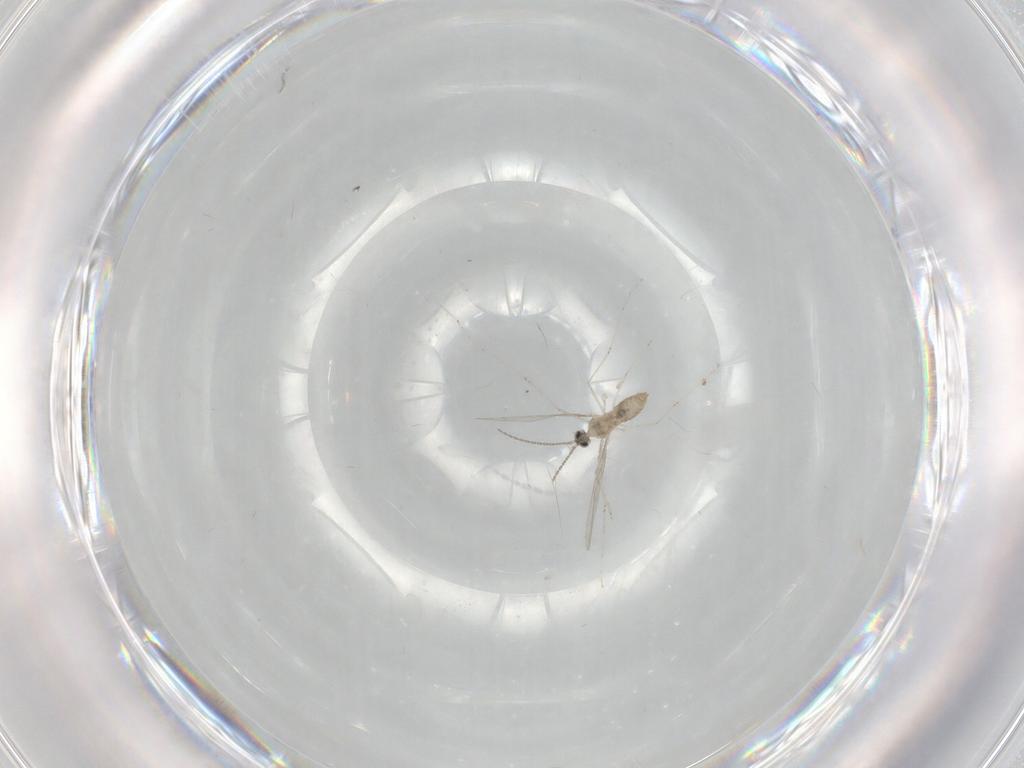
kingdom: Animalia
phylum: Arthropoda
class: Insecta
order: Diptera
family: Cecidomyiidae
